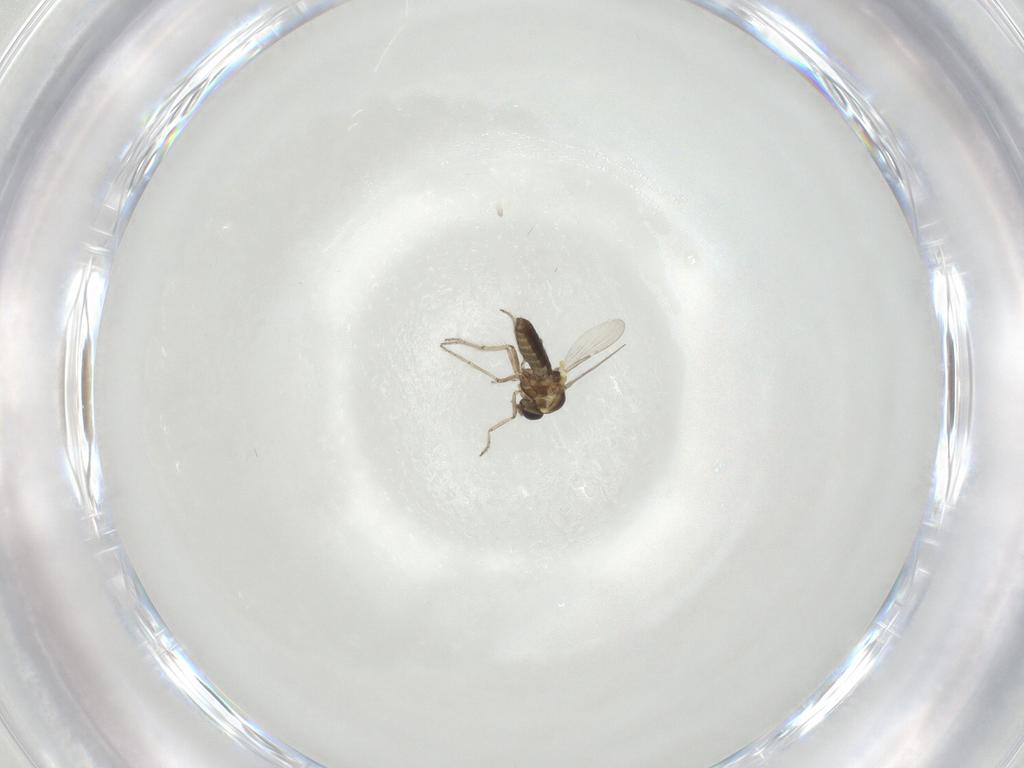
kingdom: Animalia
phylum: Arthropoda
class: Insecta
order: Diptera
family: Ceratopogonidae
